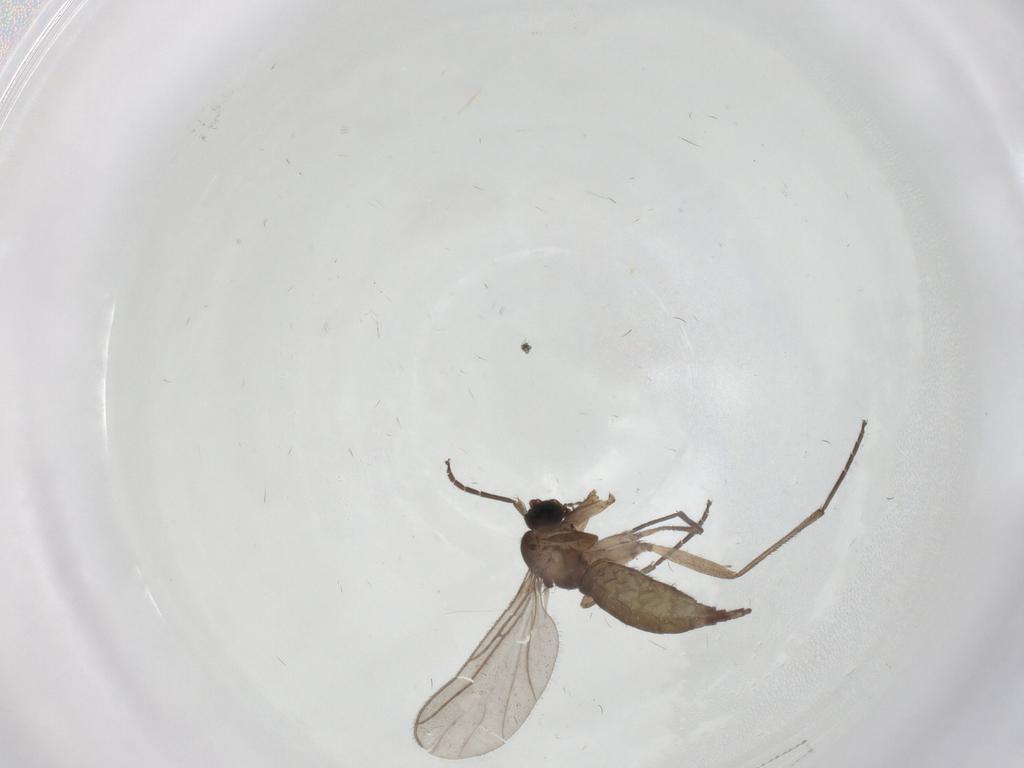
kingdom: Animalia
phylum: Arthropoda
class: Insecta
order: Diptera
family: Sciaridae
